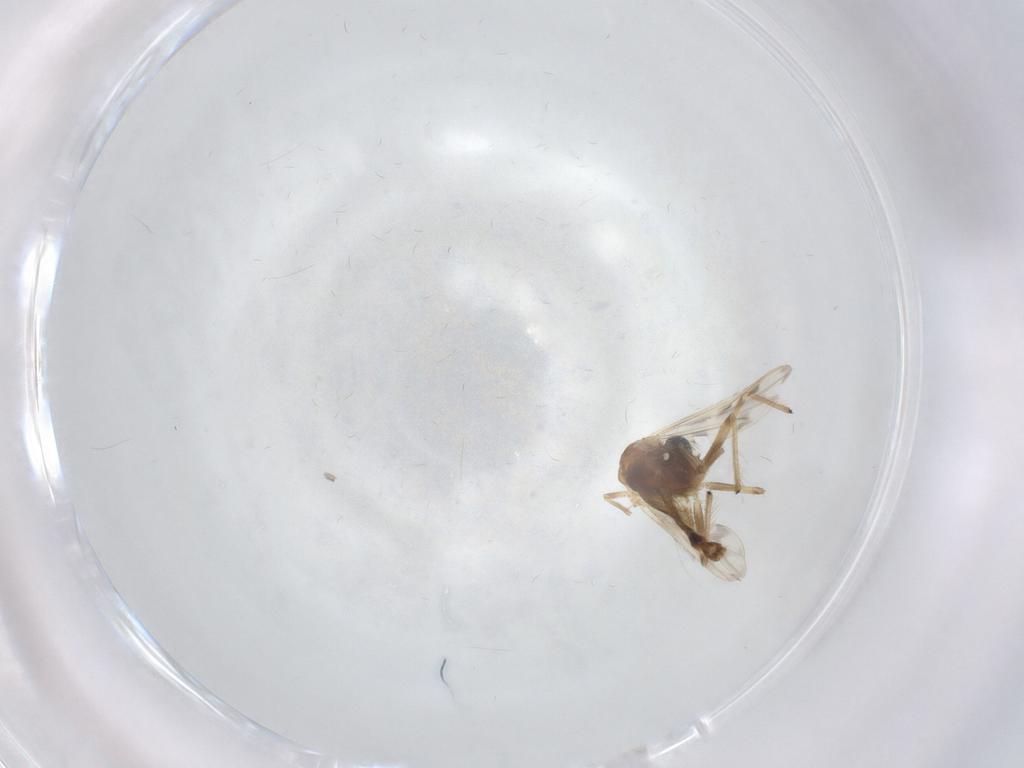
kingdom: Animalia
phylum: Arthropoda
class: Insecta
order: Diptera
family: Chironomidae
